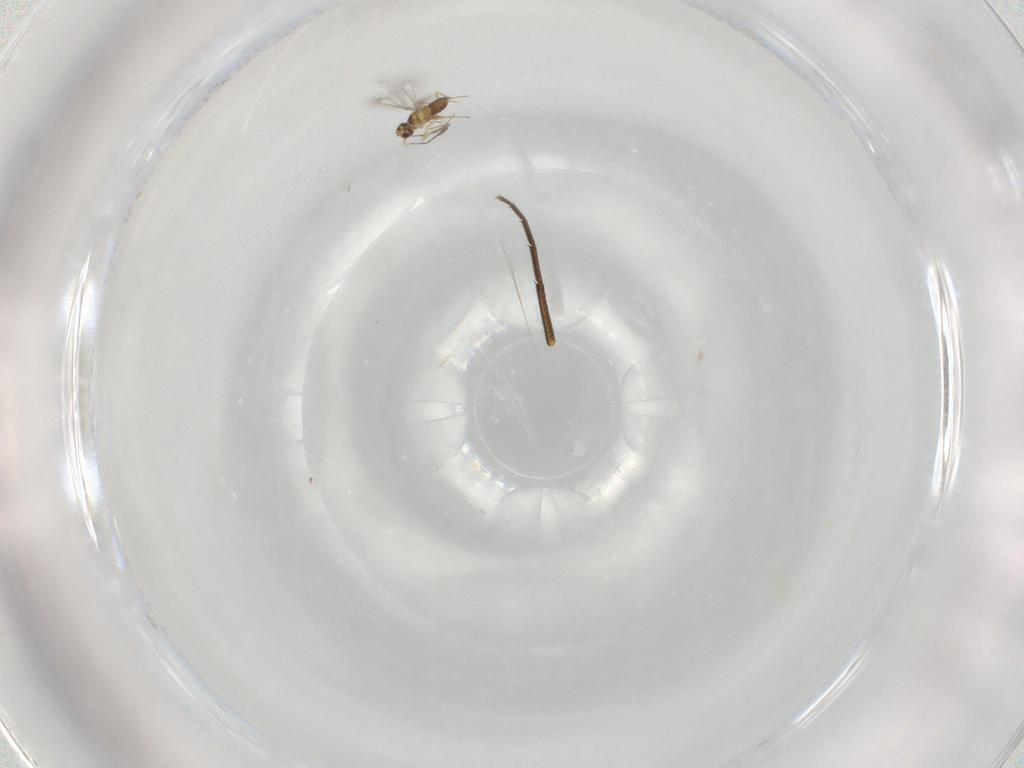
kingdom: Animalia
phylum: Arthropoda
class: Insecta
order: Hymenoptera
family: Mymaridae
